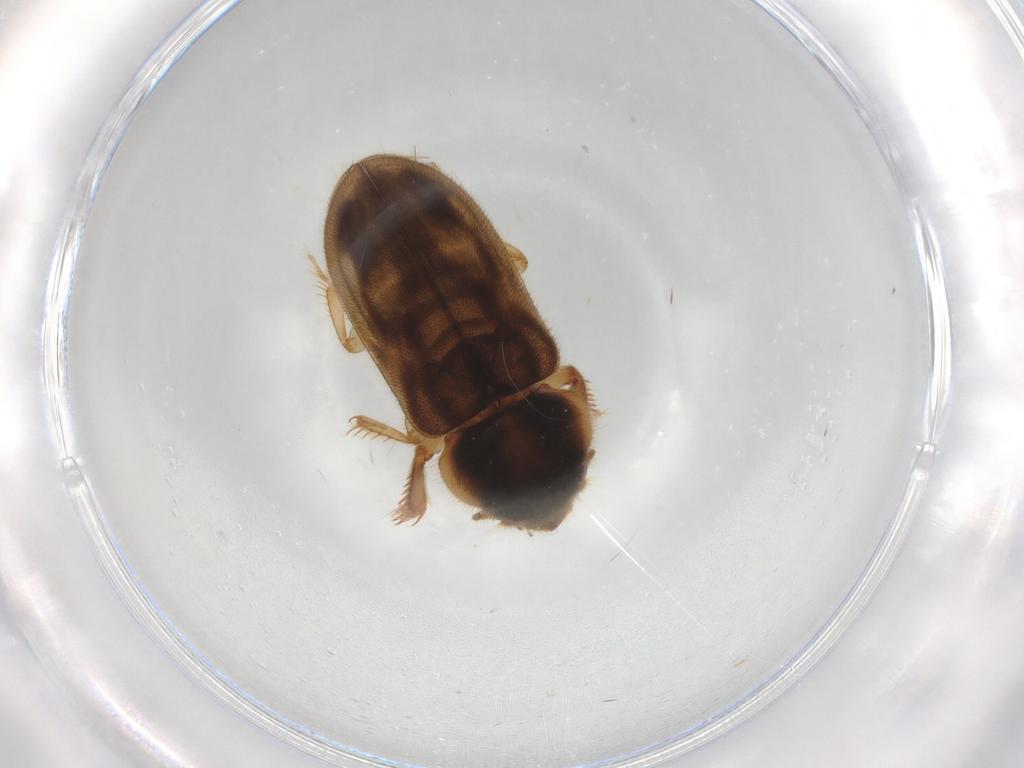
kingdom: Animalia
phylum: Arthropoda
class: Insecta
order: Coleoptera
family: Heteroceridae
